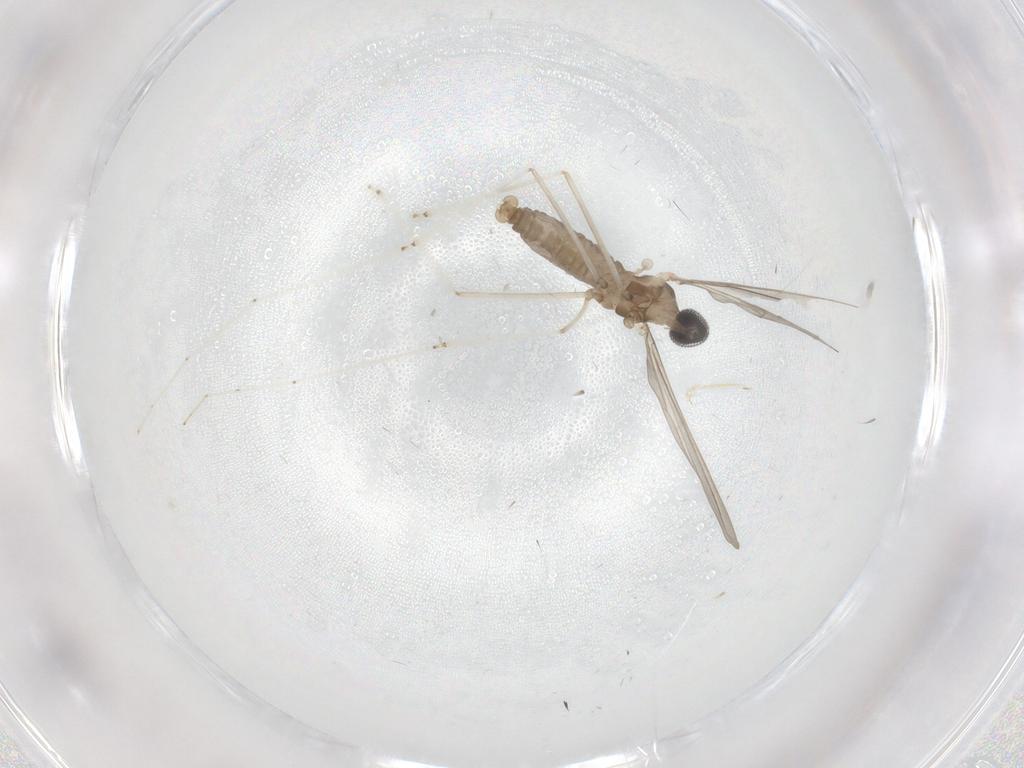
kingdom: Animalia
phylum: Arthropoda
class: Insecta
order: Diptera
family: Cecidomyiidae
